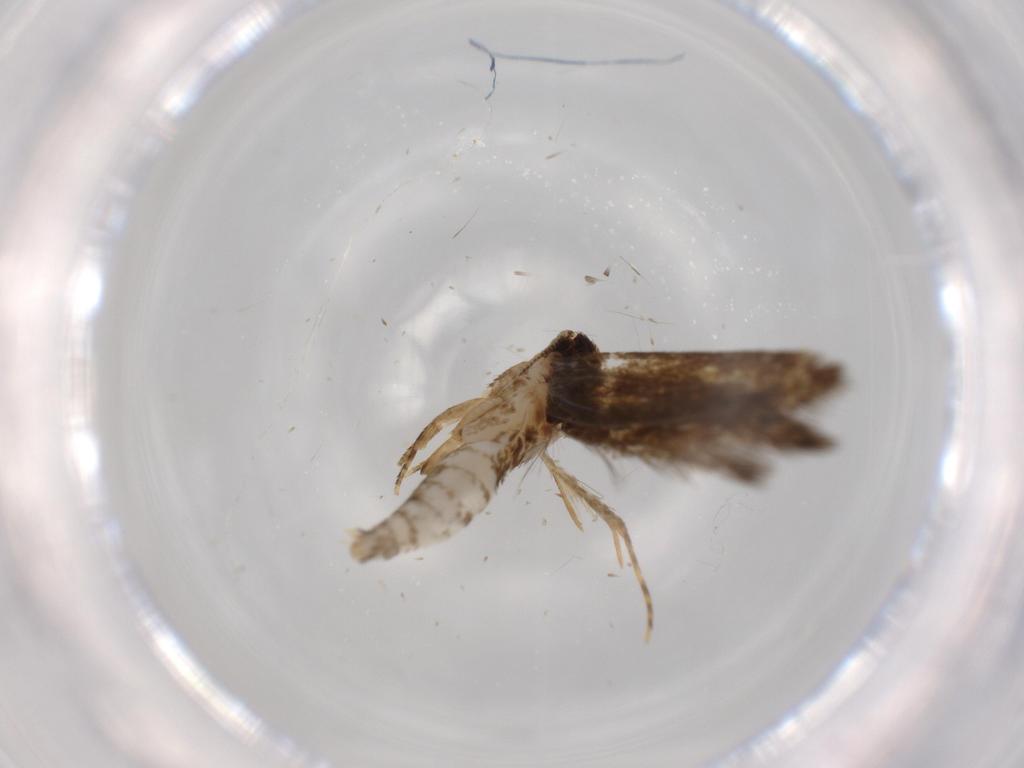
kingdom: Animalia
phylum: Arthropoda
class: Insecta
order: Lepidoptera
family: Tineidae
